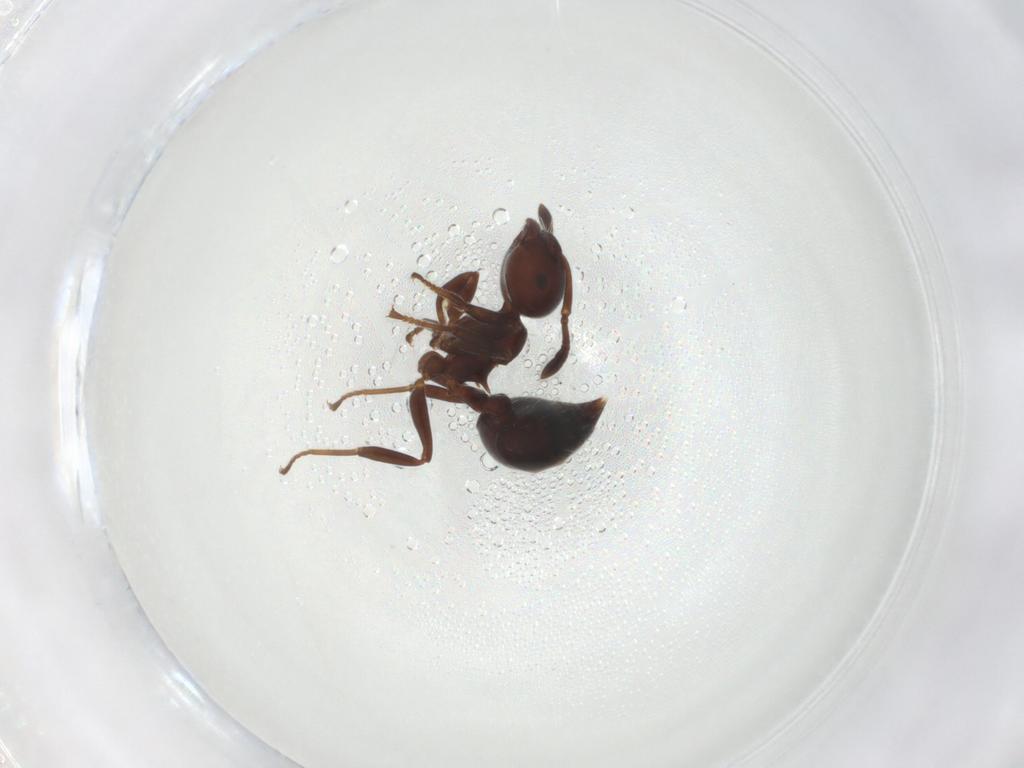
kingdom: Animalia
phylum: Arthropoda
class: Insecta
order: Hymenoptera
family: Formicidae
